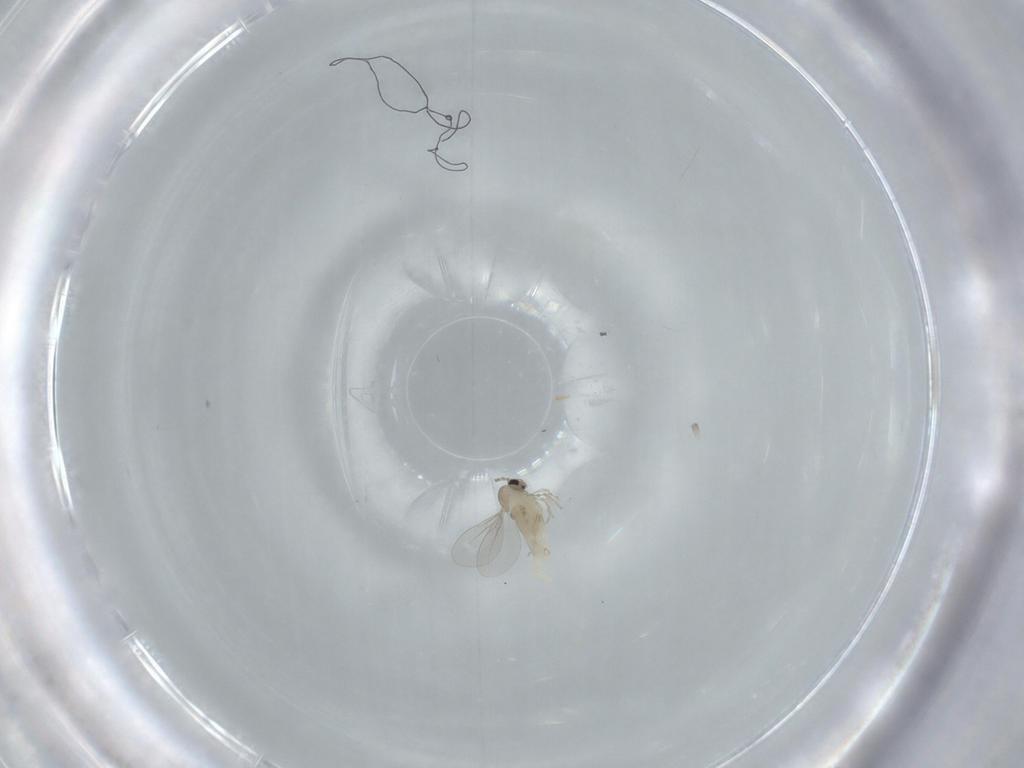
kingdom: Animalia
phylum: Arthropoda
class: Insecta
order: Diptera
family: Cecidomyiidae
